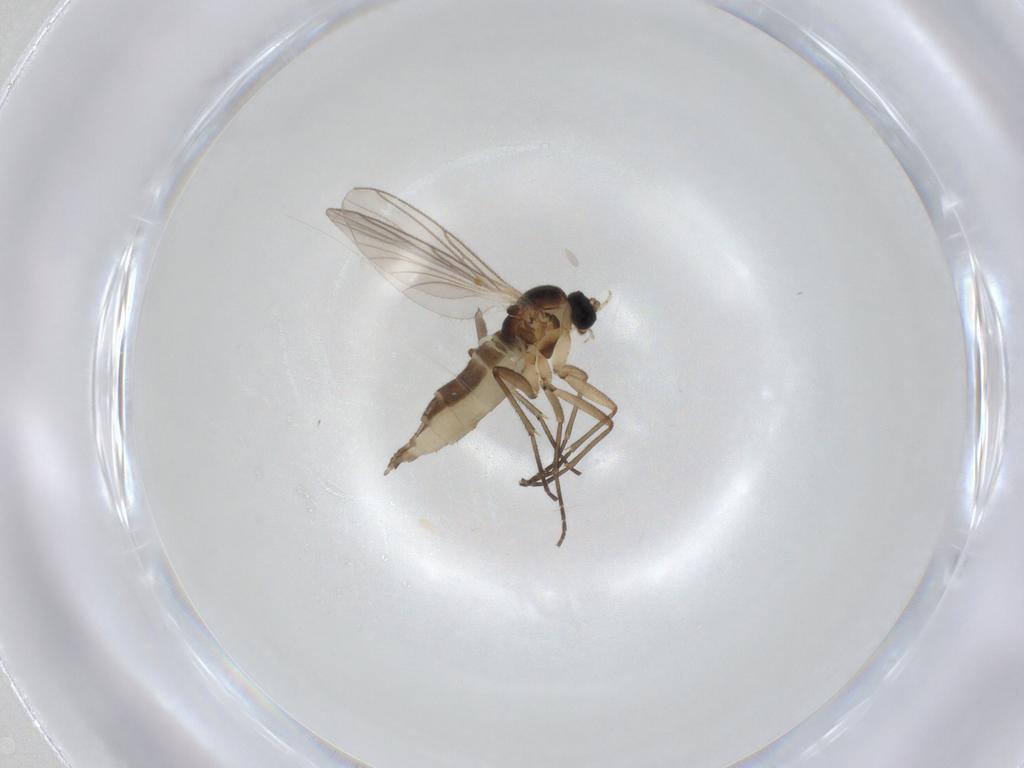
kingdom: Animalia
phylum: Arthropoda
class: Insecta
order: Diptera
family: Chironomidae
